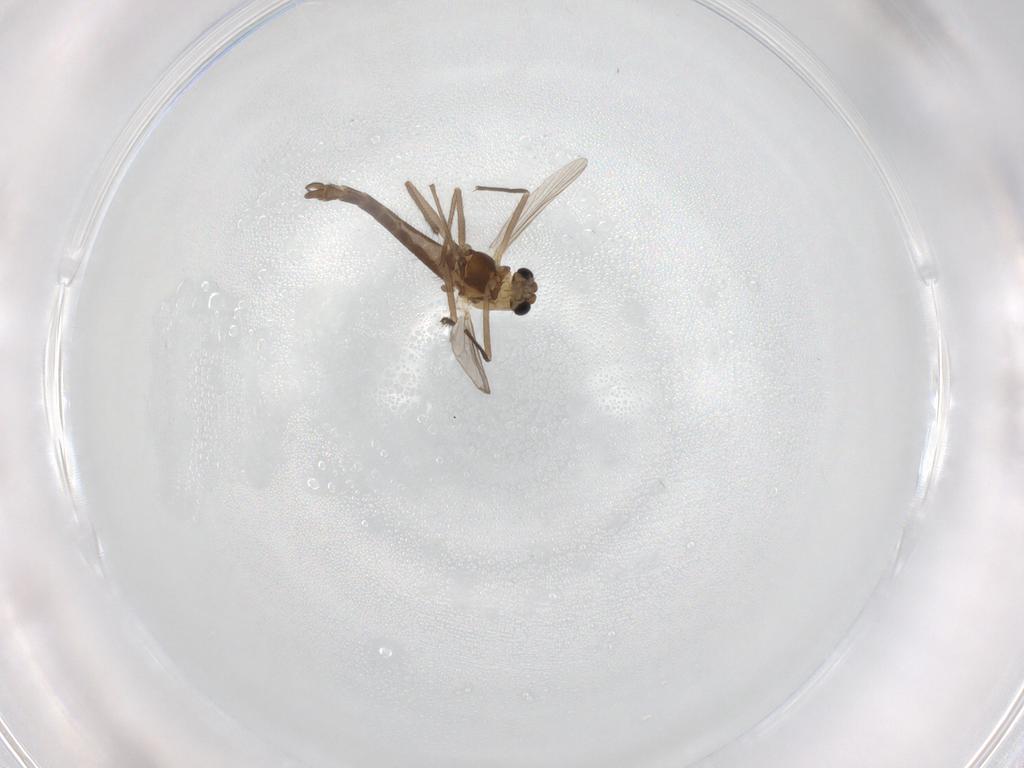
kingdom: Animalia
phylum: Arthropoda
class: Insecta
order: Diptera
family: Chironomidae
